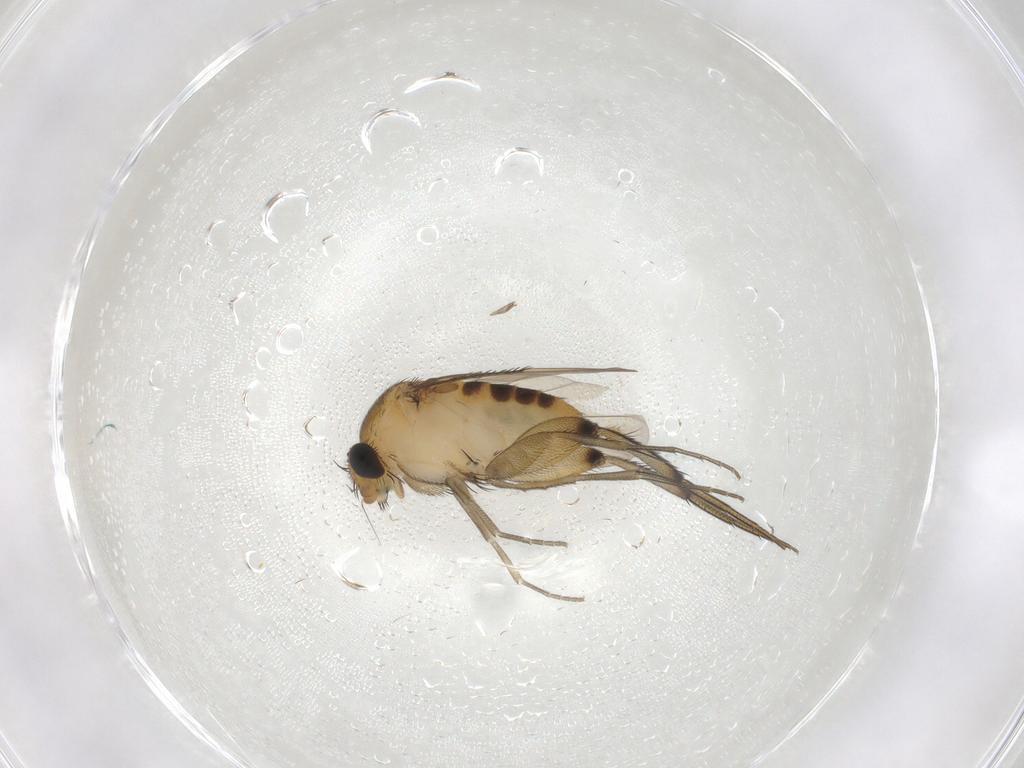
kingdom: Animalia
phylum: Arthropoda
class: Insecta
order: Diptera
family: Phoridae
